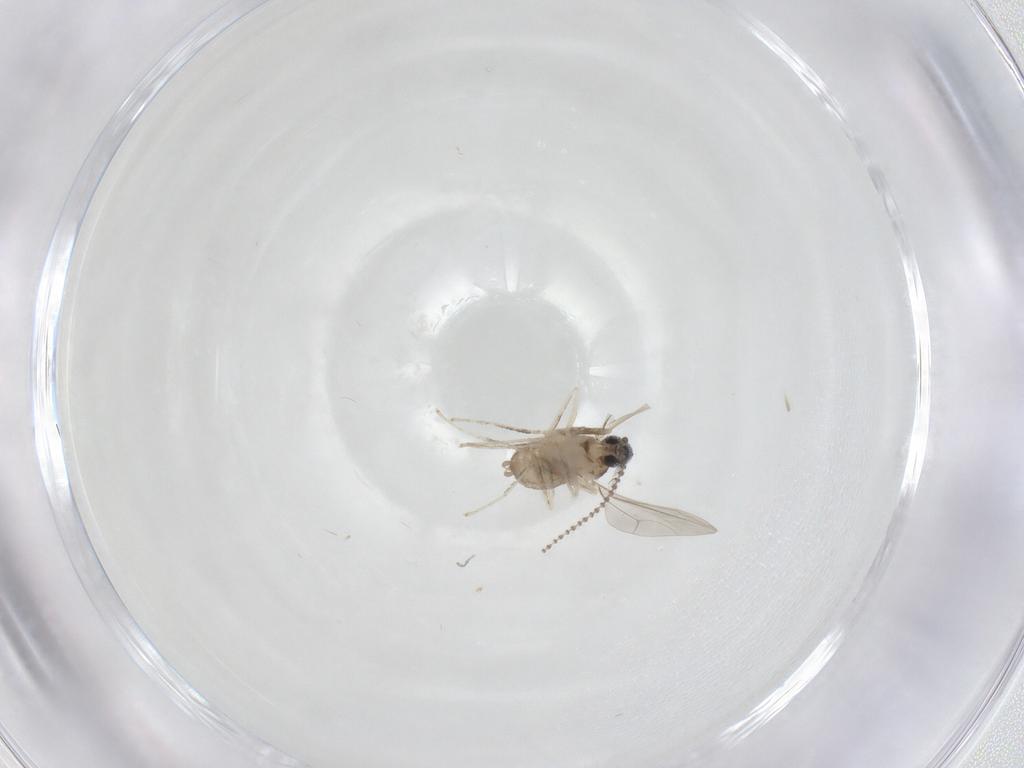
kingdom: Animalia
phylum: Arthropoda
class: Insecta
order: Diptera
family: Cecidomyiidae
